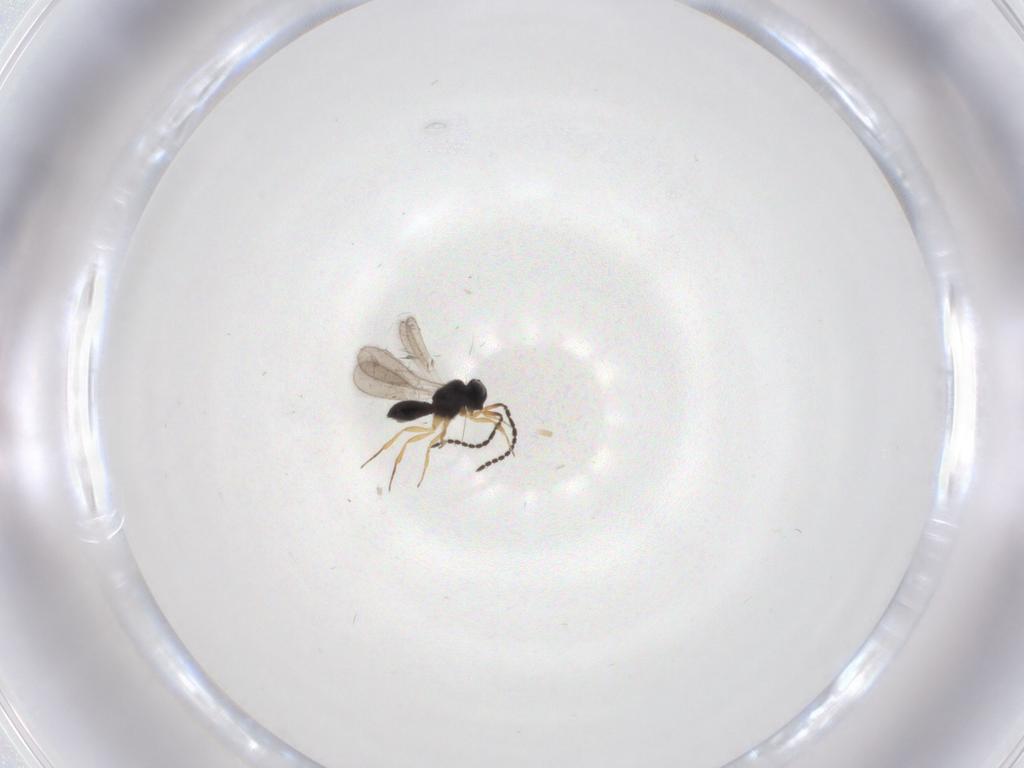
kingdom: Animalia
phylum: Arthropoda
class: Insecta
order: Hymenoptera
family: Scelionidae
